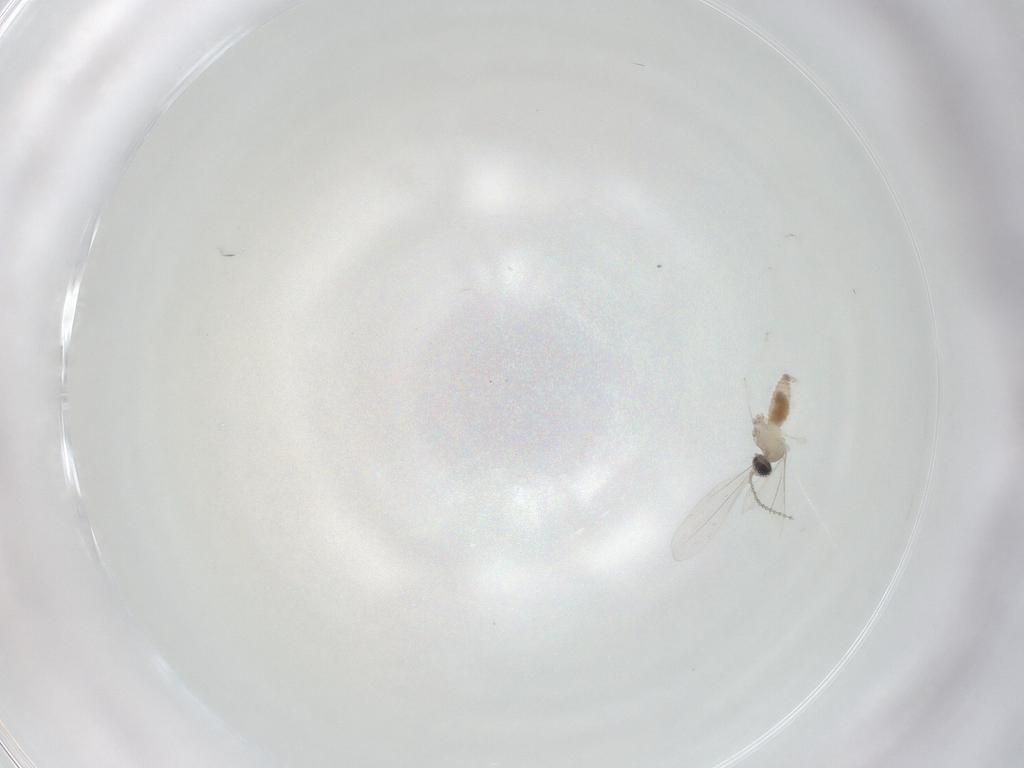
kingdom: Animalia
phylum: Arthropoda
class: Insecta
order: Diptera
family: Cecidomyiidae
